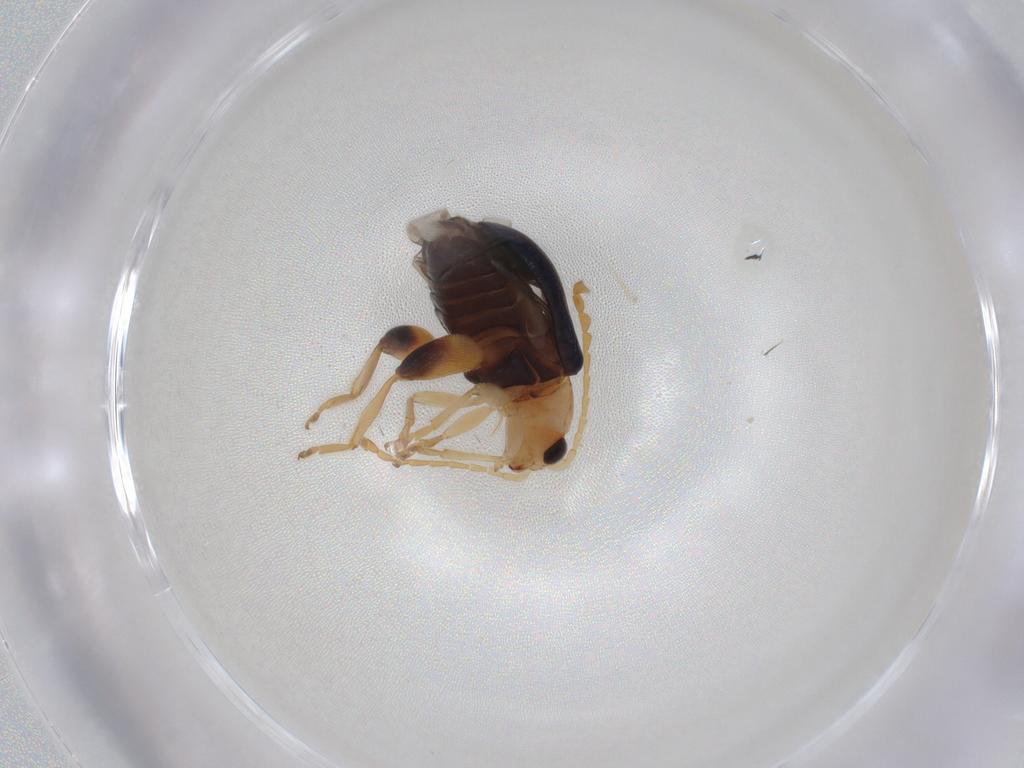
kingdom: Animalia
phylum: Arthropoda
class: Insecta
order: Coleoptera
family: Chrysomelidae
